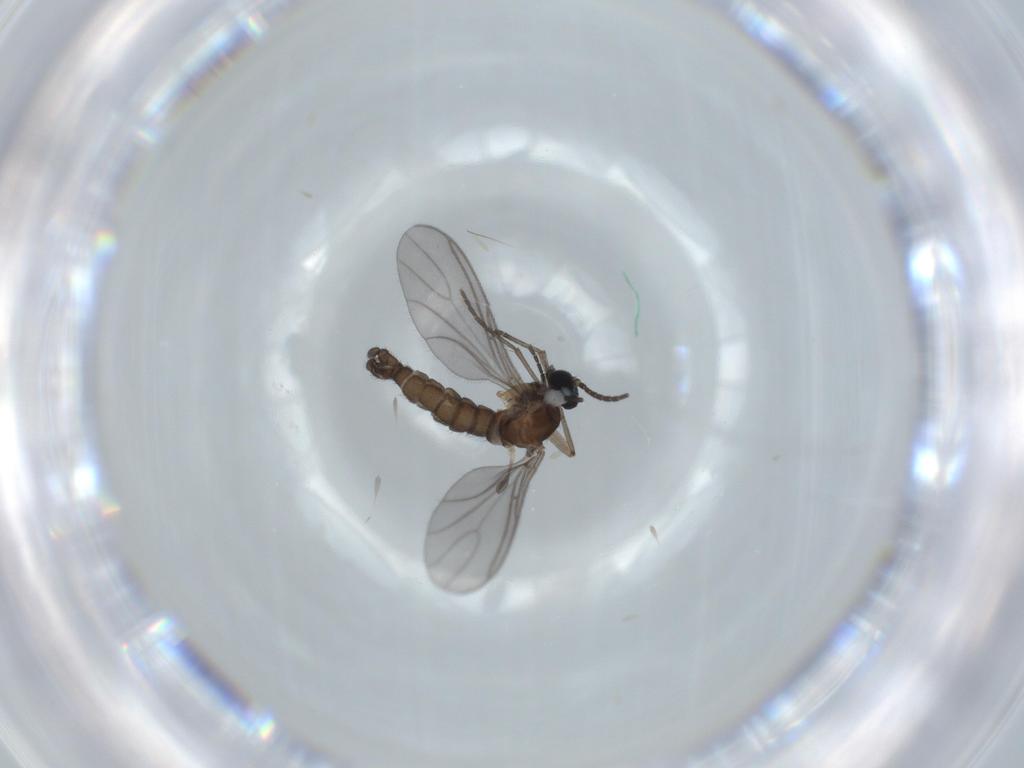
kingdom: Animalia
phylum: Arthropoda
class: Insecta
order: Diptera
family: Sciaridae
